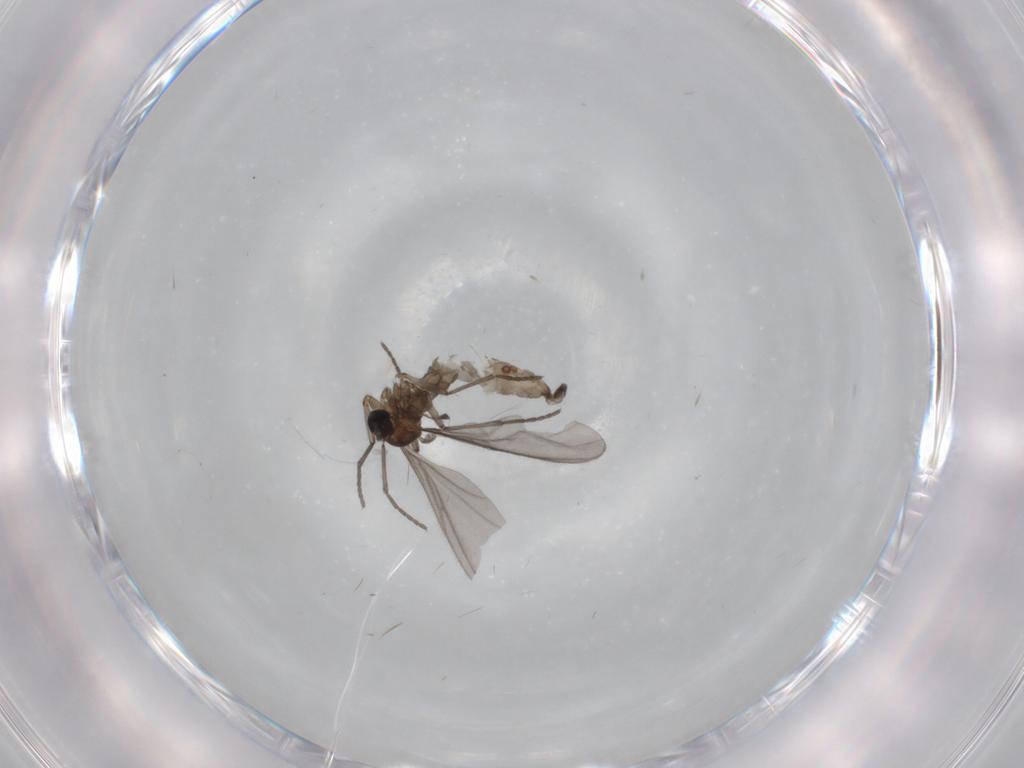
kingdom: Animalia
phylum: Arthropoda
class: Insecta
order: Diptera
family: Sciaridae
